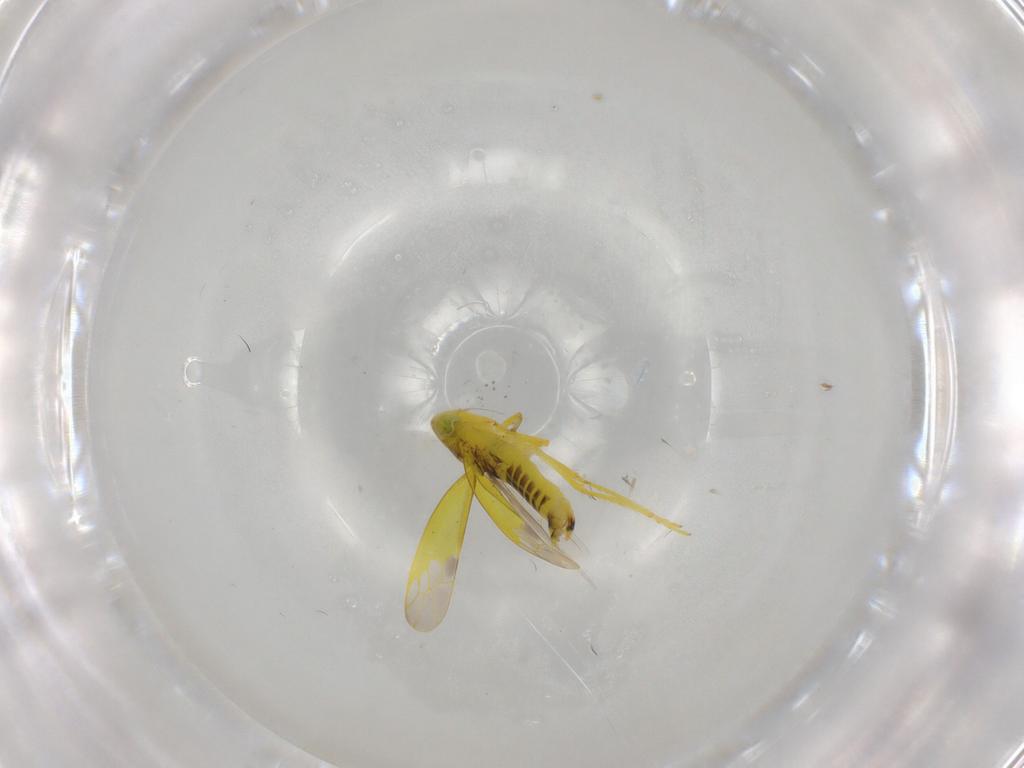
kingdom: Animalia
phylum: Arthropoda
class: Insecta
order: Hemiptera
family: Cicadellidae
